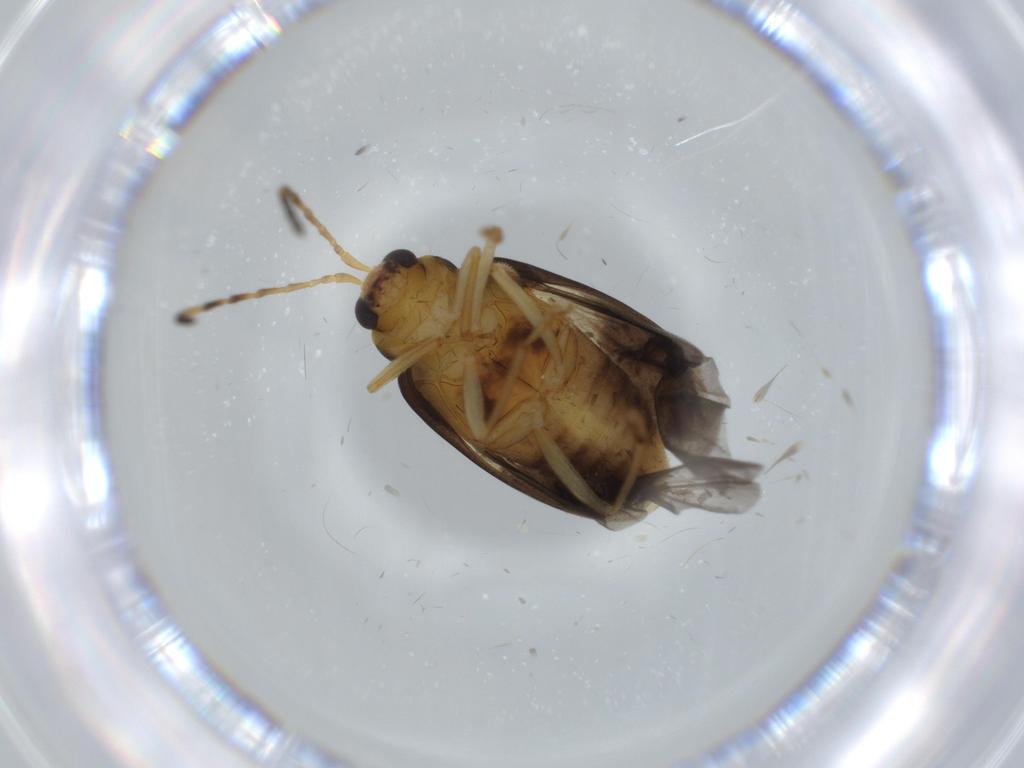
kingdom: Animalia
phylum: Arthropoda
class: Insecta
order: Coleoptera
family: Chrysomelidae
